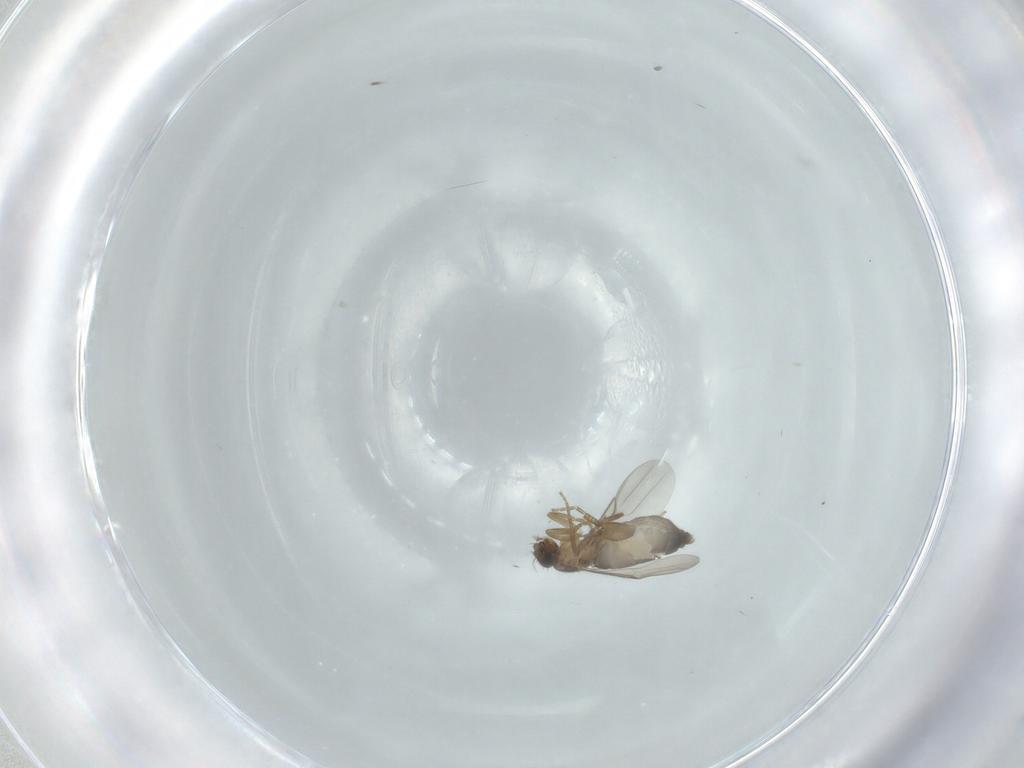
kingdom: Animalia
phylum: Arthropoda
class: Insecta
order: Diptera
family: Phoridae
